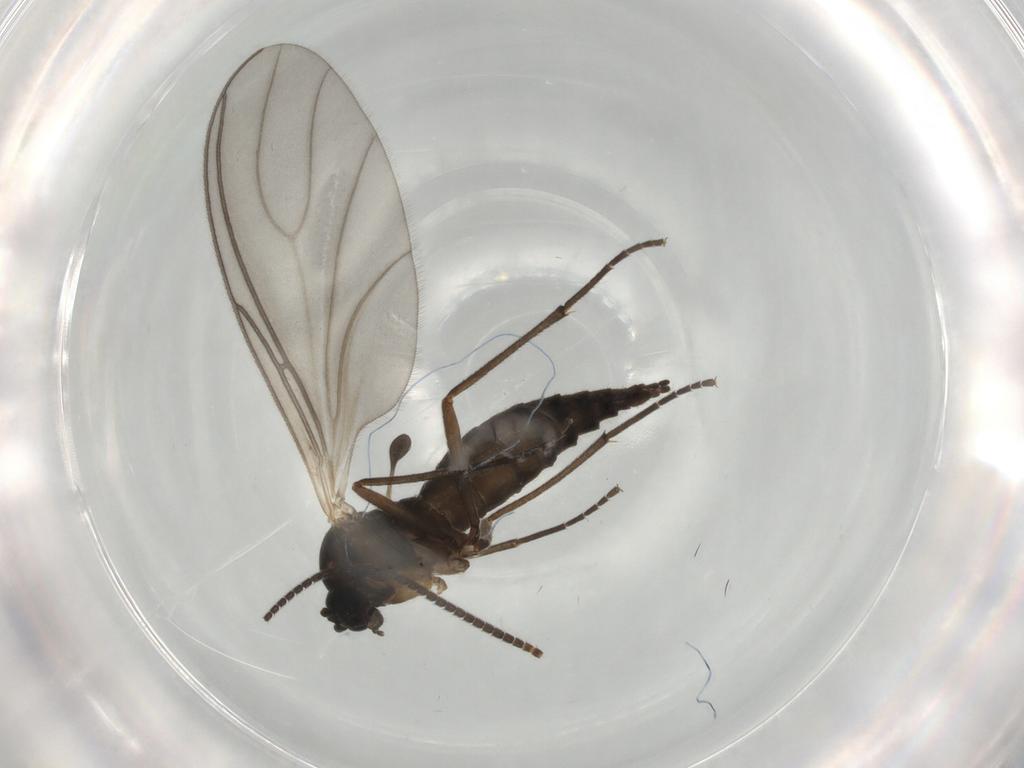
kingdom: Animalia
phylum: Arthropoda
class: Insecta
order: Diptera
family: Sciaridae
